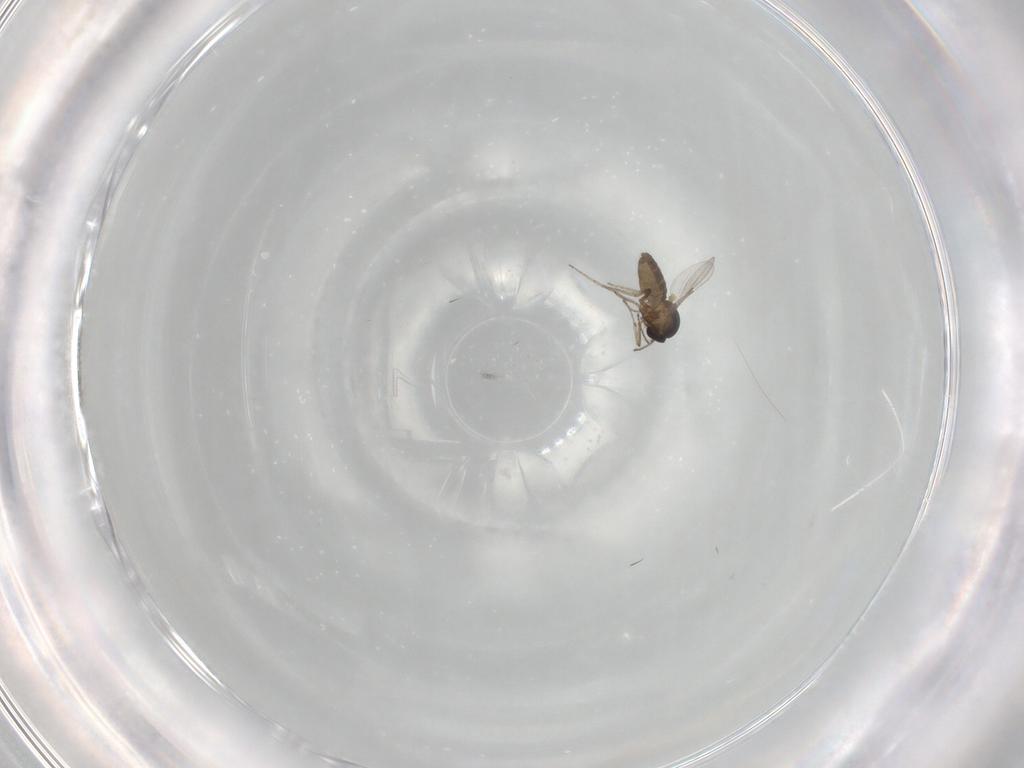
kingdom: Animalia
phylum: Arthropoda
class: Insecta
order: Diptera
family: Ceratopogonidae
